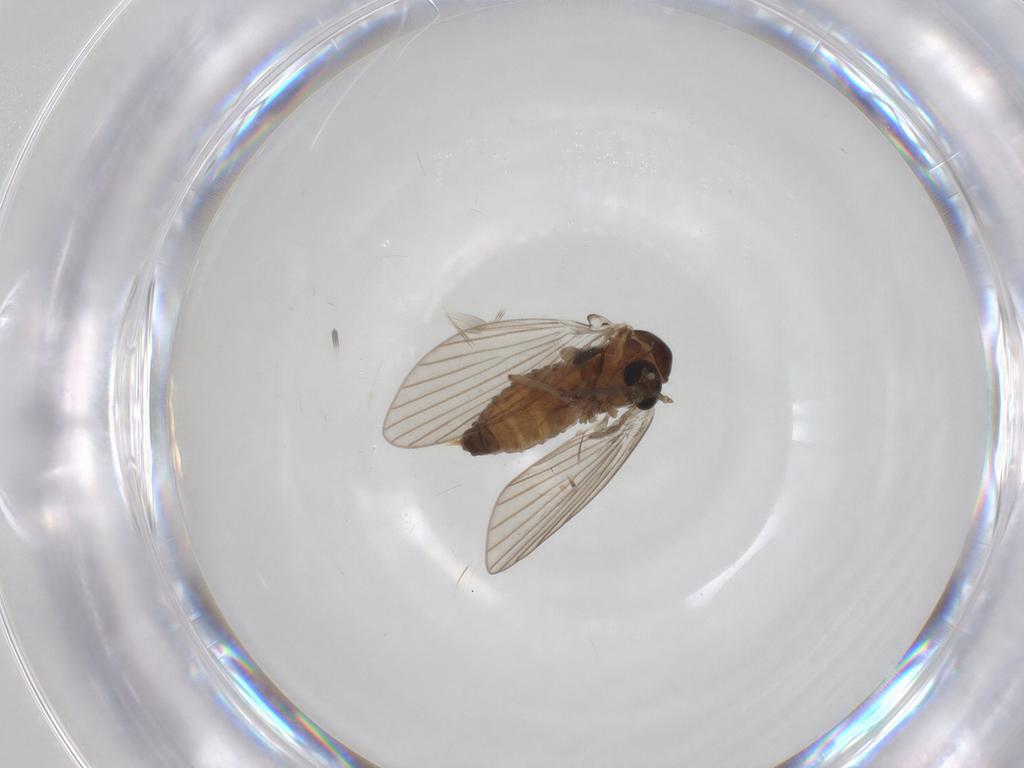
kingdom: Animalia
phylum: Arthropoda
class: Insecta
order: Diptera
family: Psychodidae
